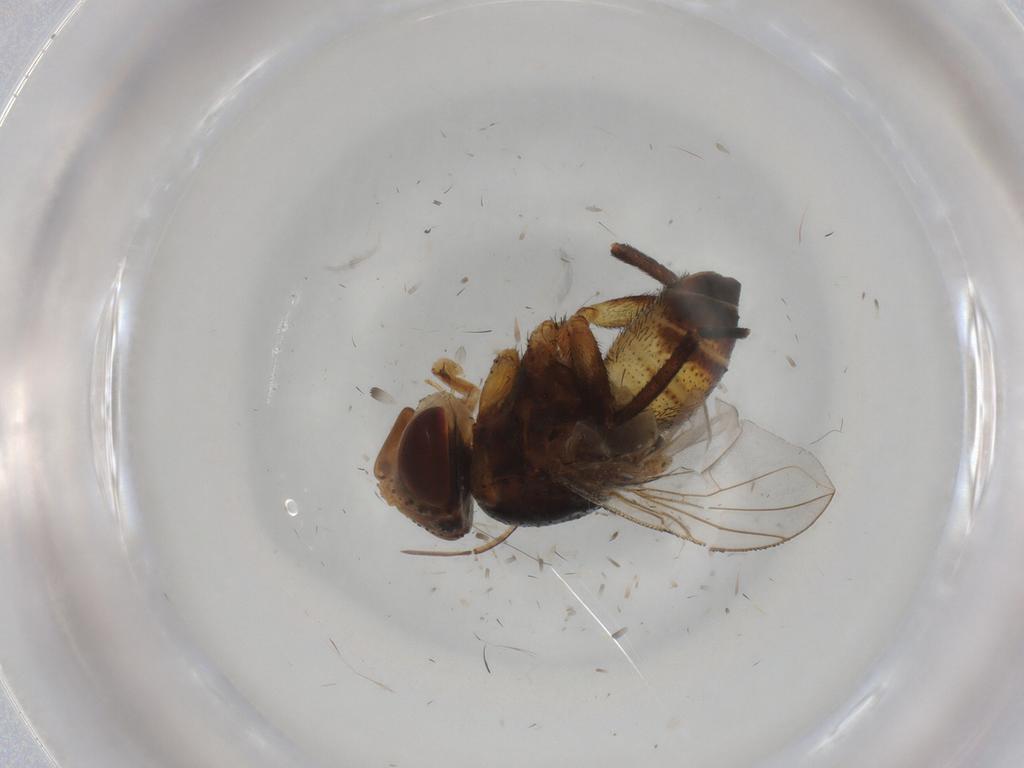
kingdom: Animalia
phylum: Arthropoda
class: Insecta
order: Diptera
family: Glossinidae
